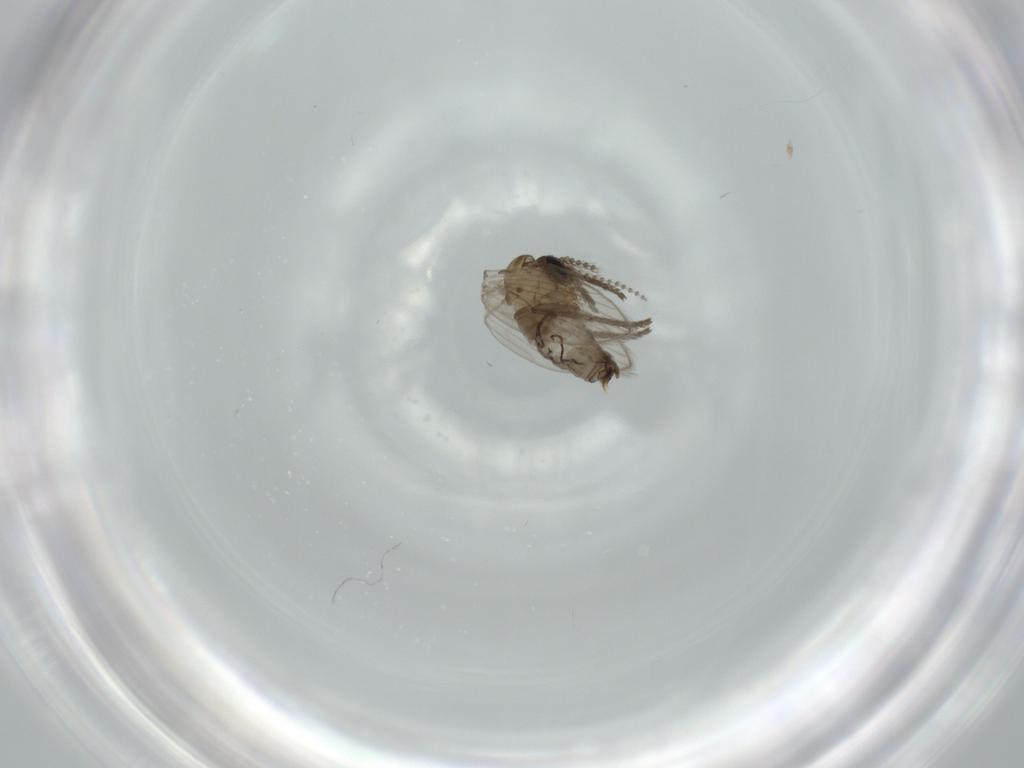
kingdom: Animalia
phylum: Arthropoda
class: Insecta
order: Diptera
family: Psychodidae
